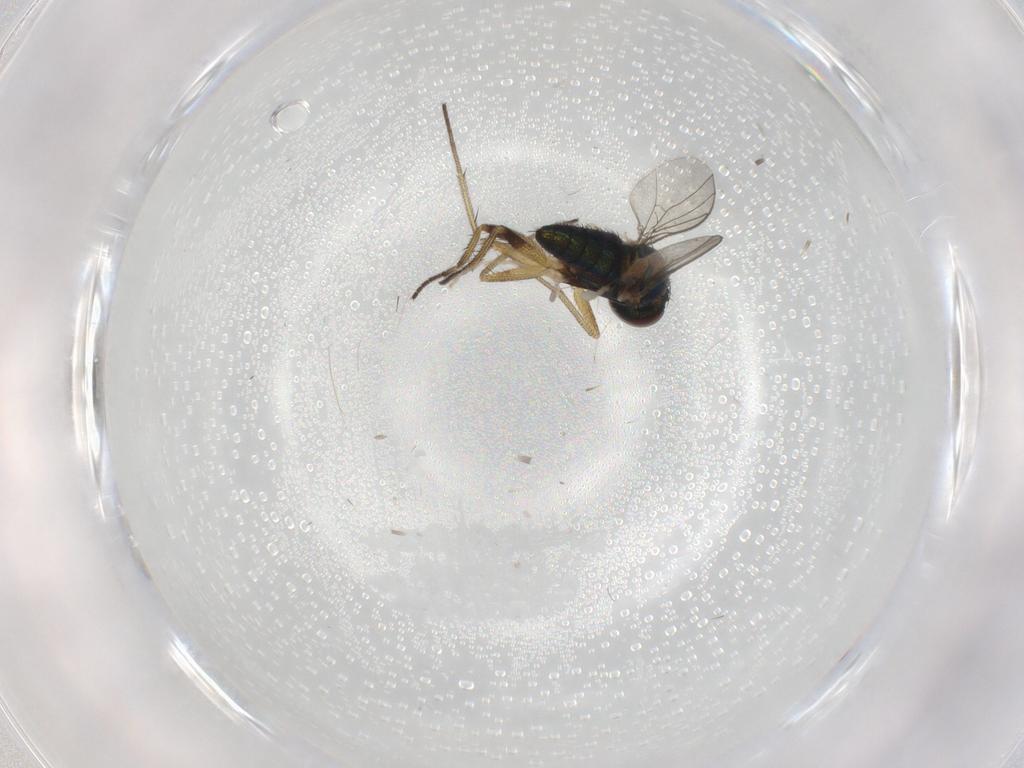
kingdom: Animalia
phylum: Arthropoda
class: Insecta
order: Diptera
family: Dolichopodidae
